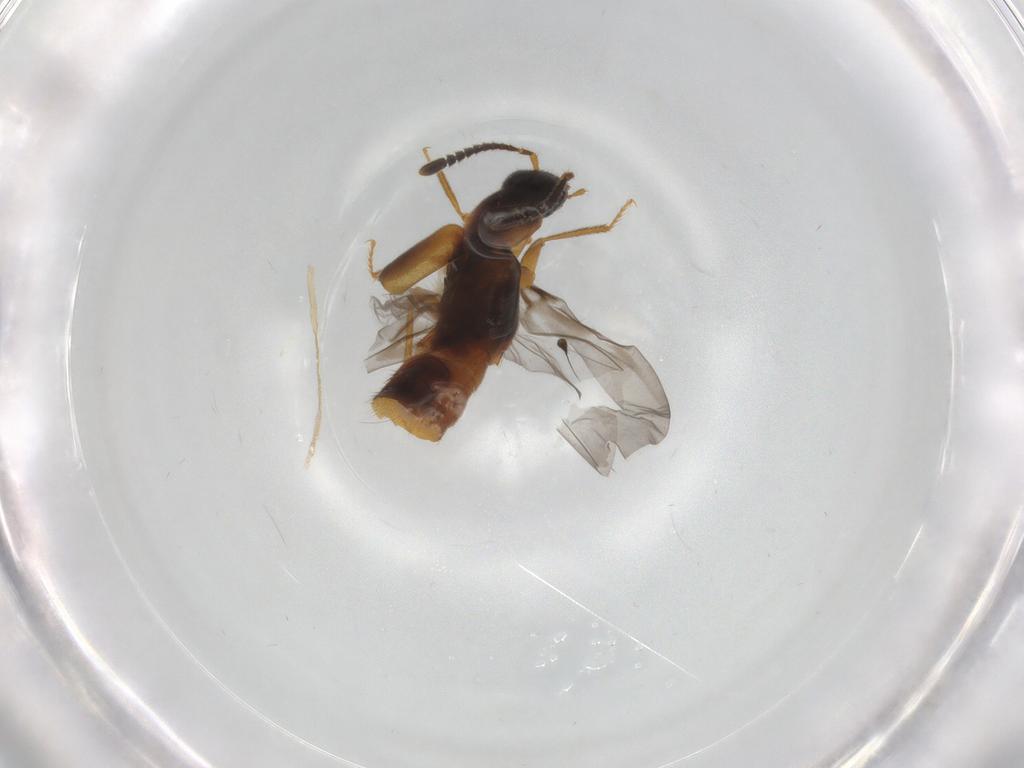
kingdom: Animalia
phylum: Arthropoda
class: Insecta
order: Coleoptera
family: Staphylinidae
